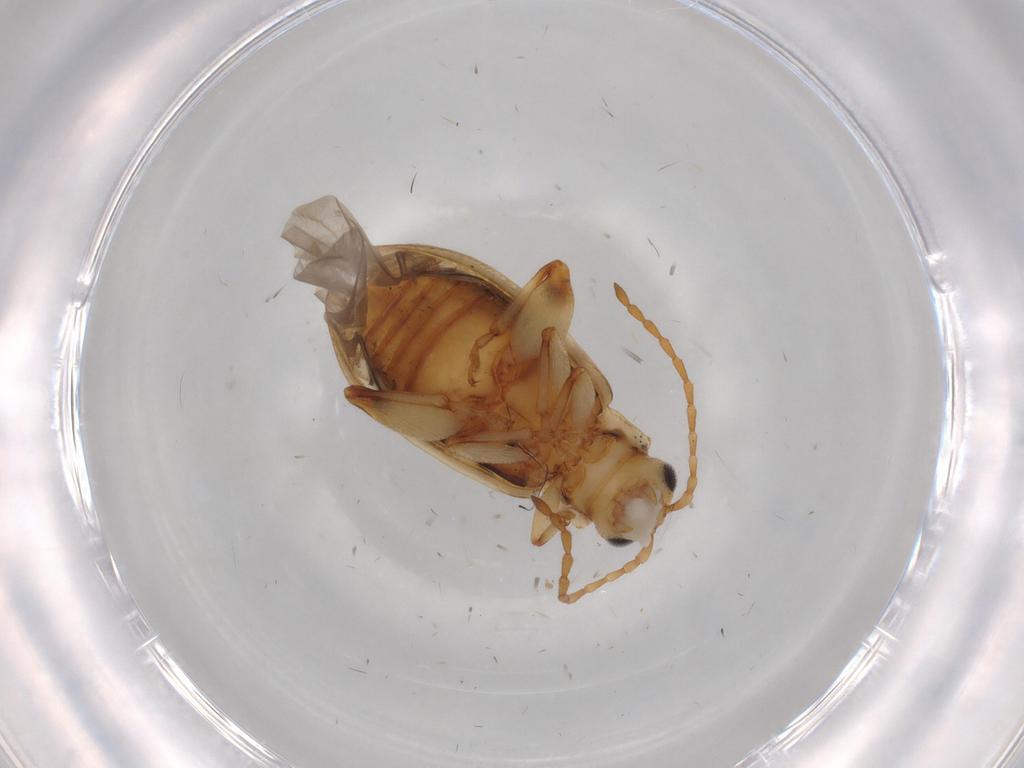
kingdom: Animalia
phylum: Arthropoda
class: Insecta
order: Coleoptera
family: Chrysomelidae
